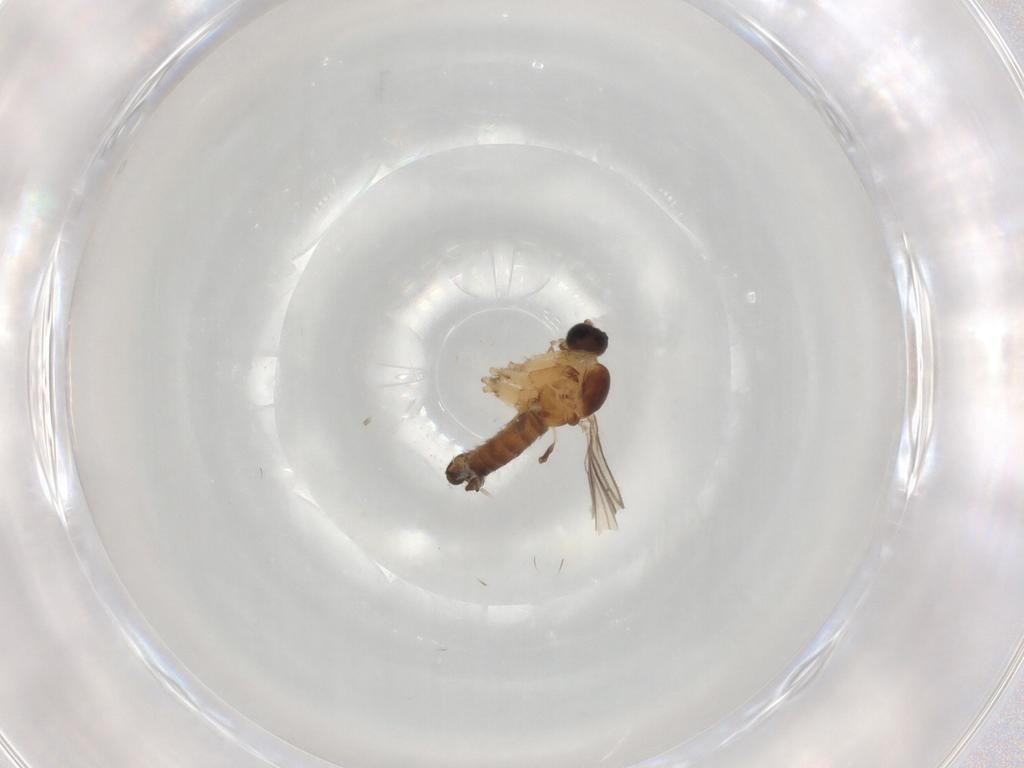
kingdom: Animalia
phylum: Arthropoda
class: Insecta
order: Diptera
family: Sciaridae
